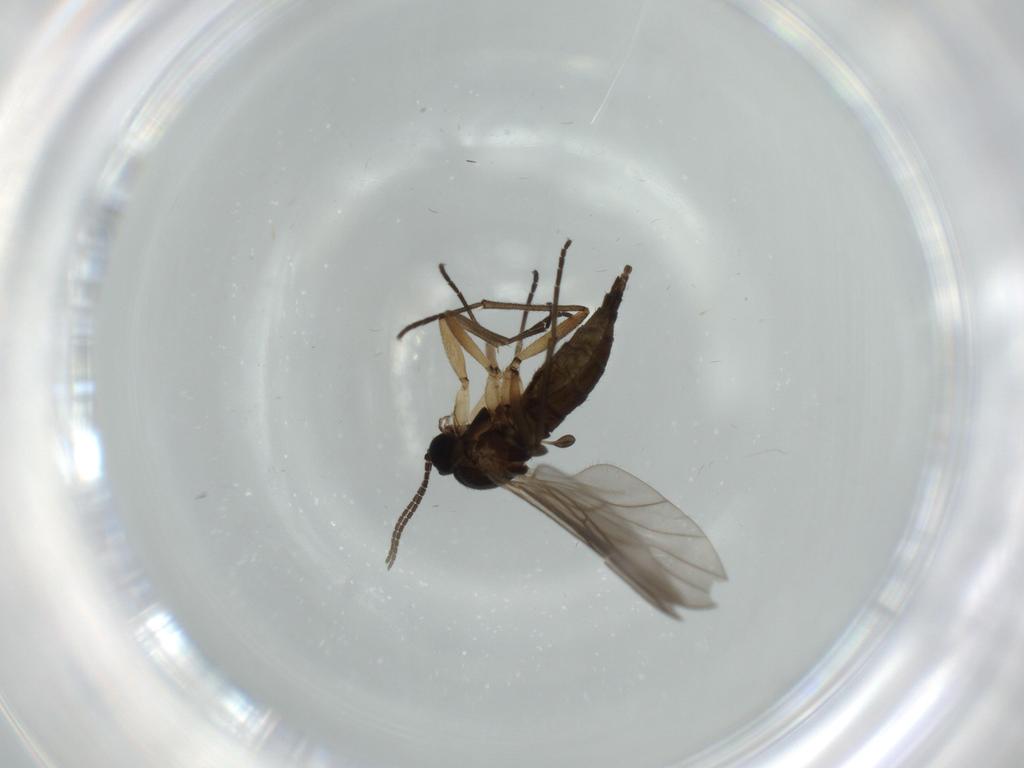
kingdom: Animalia
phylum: Arthropoda
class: Insecta
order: Diptera
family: Sciaridae
